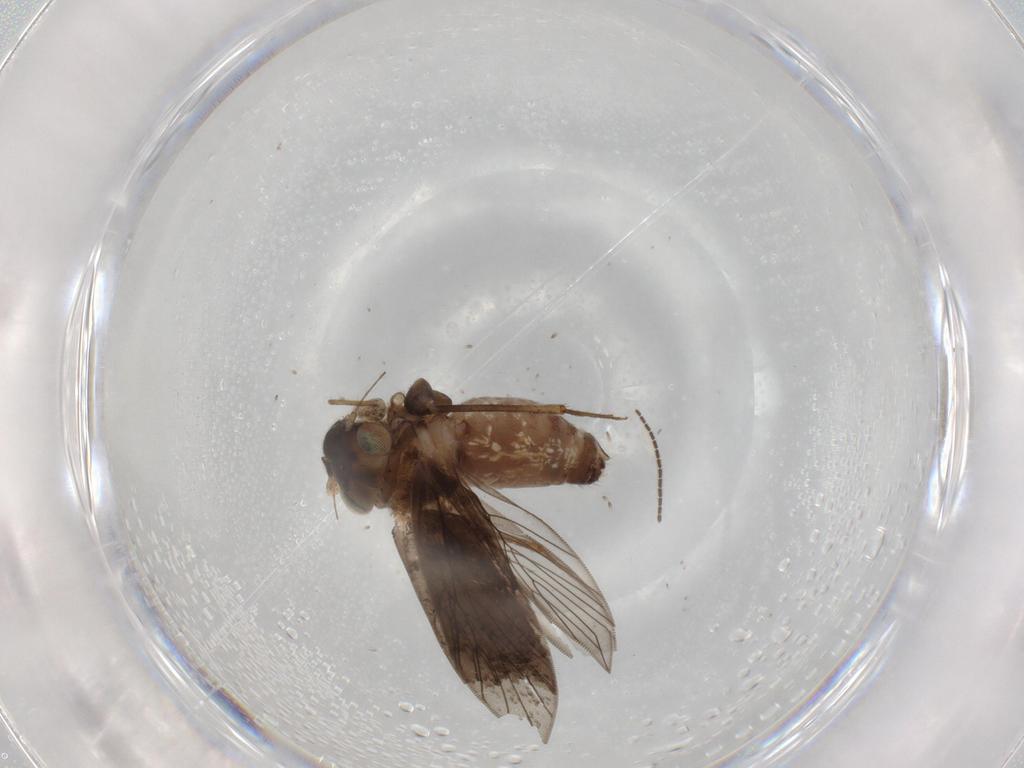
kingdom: Animalia
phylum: Arthropoda
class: Insecta
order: Psocodea
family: Lepidopsocidae
